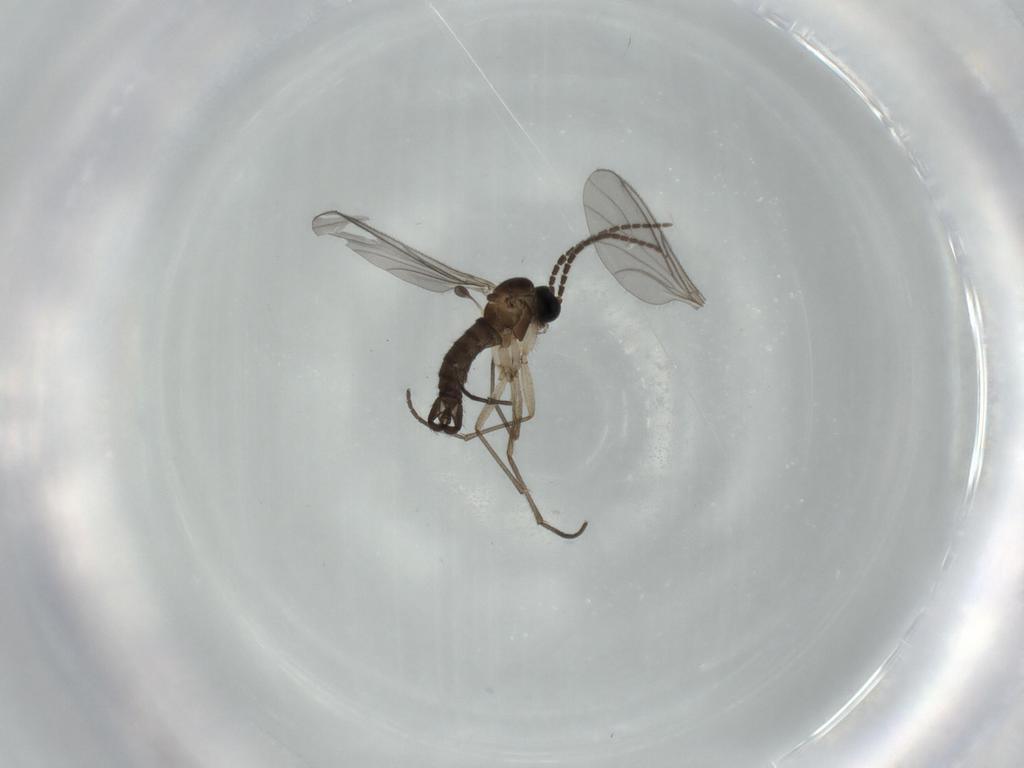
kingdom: Animalia
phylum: Arthropoda
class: Insecta
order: Diptera
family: Sciaridae
